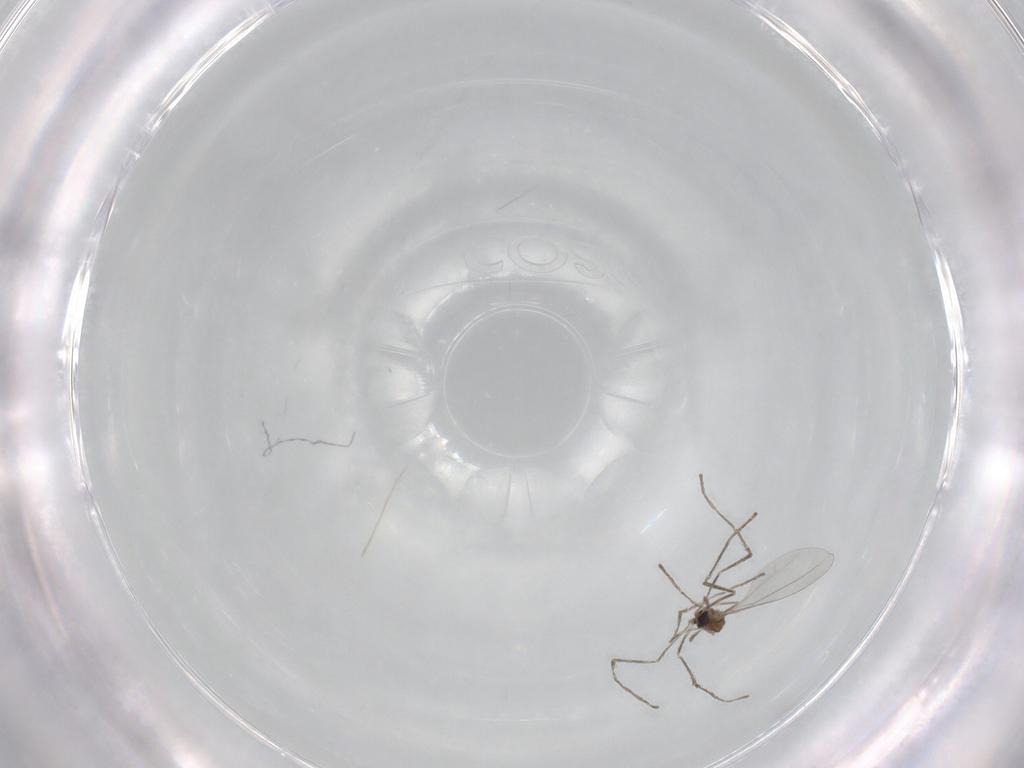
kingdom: Animalia
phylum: Arthropoda
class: Insecta
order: Diptera
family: Cecidomyiidae
